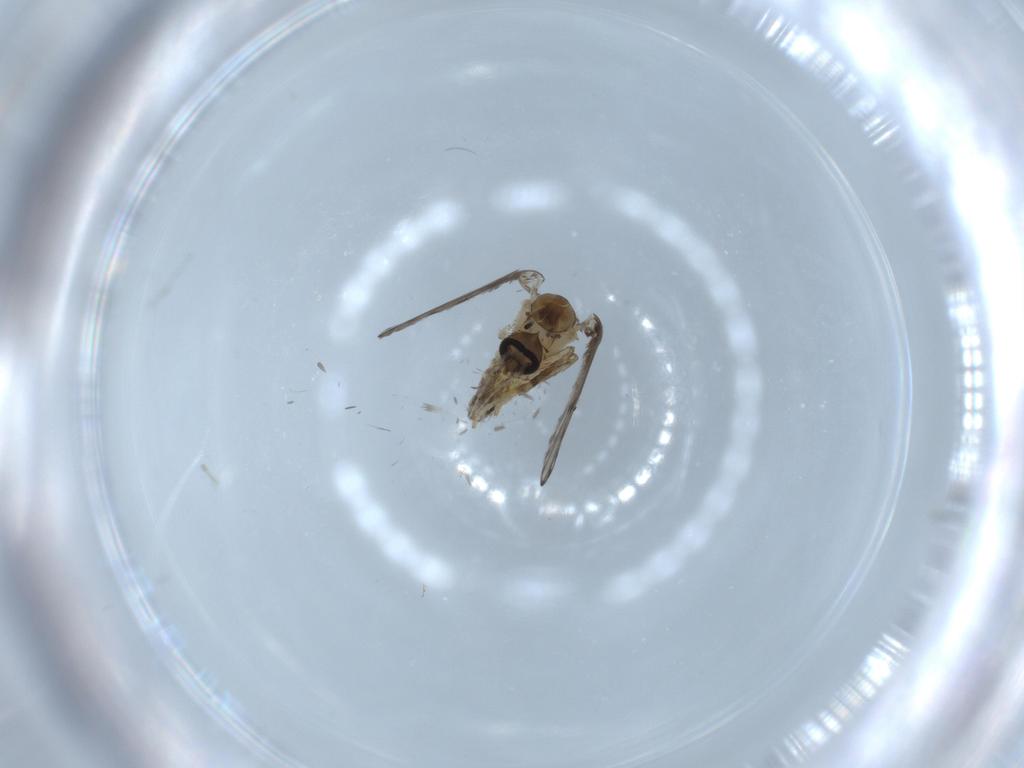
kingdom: Animalia
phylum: Arthropoda
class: Insecta
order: Diptera
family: Psychodidae
